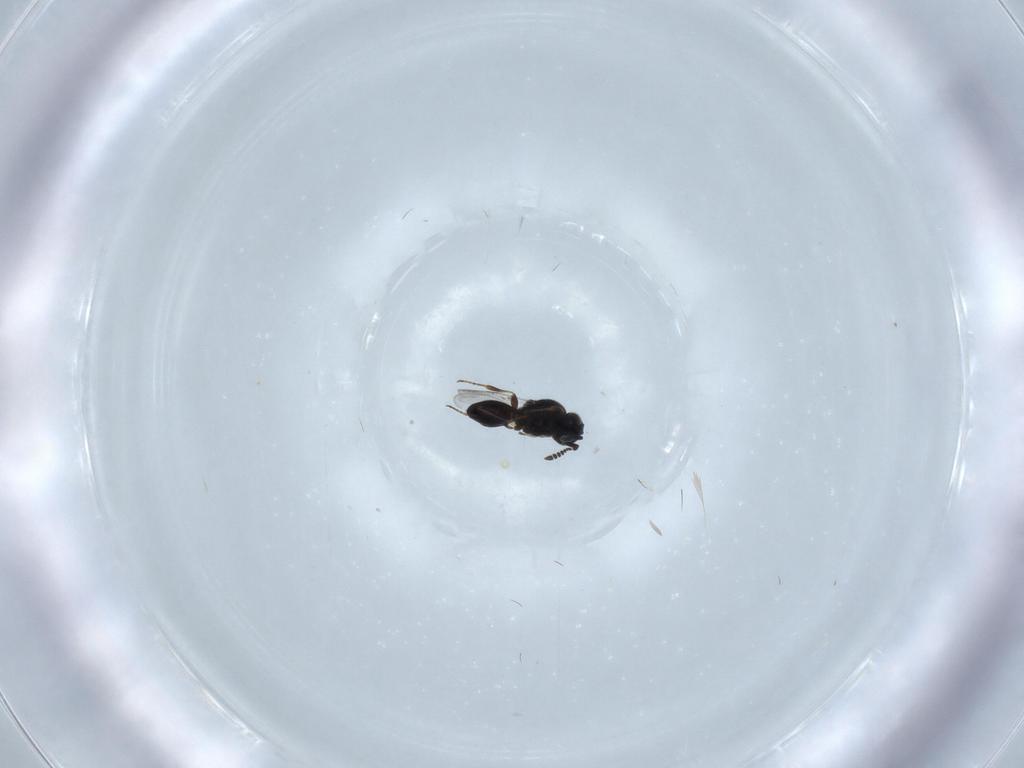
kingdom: Animalia
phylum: Arthropoda
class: Insecta
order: Hymenoptera
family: Platygastridae
